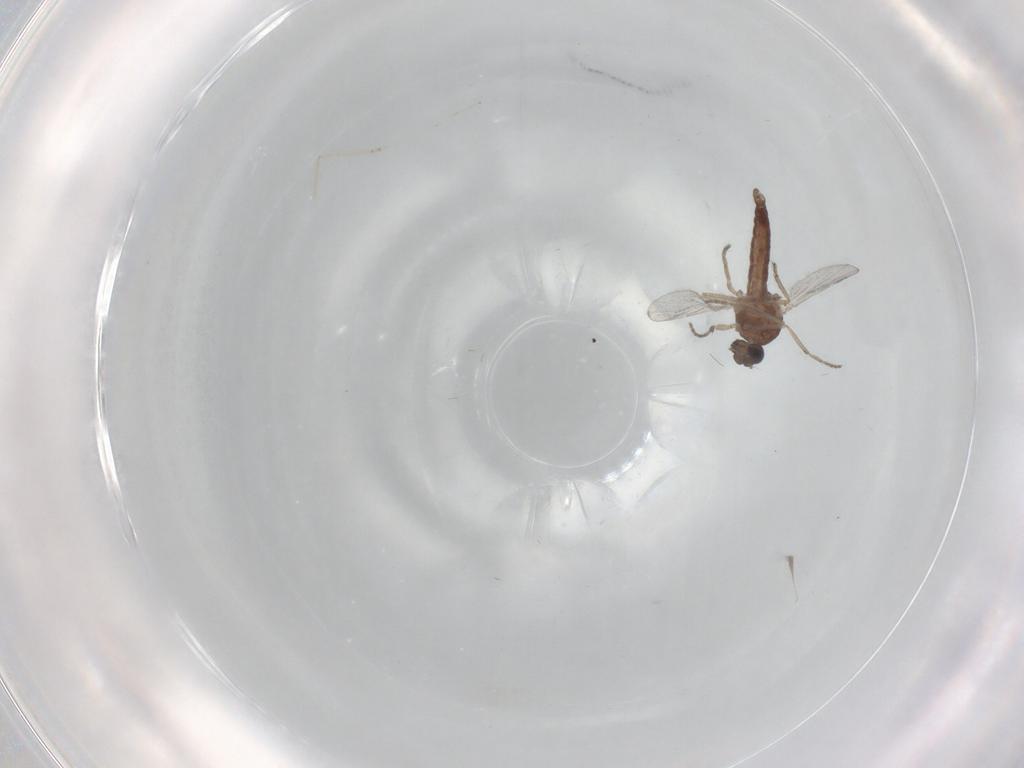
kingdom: Animalia
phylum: Arthropoda
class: Insecta
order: Diptera
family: Ceratopogonidae
